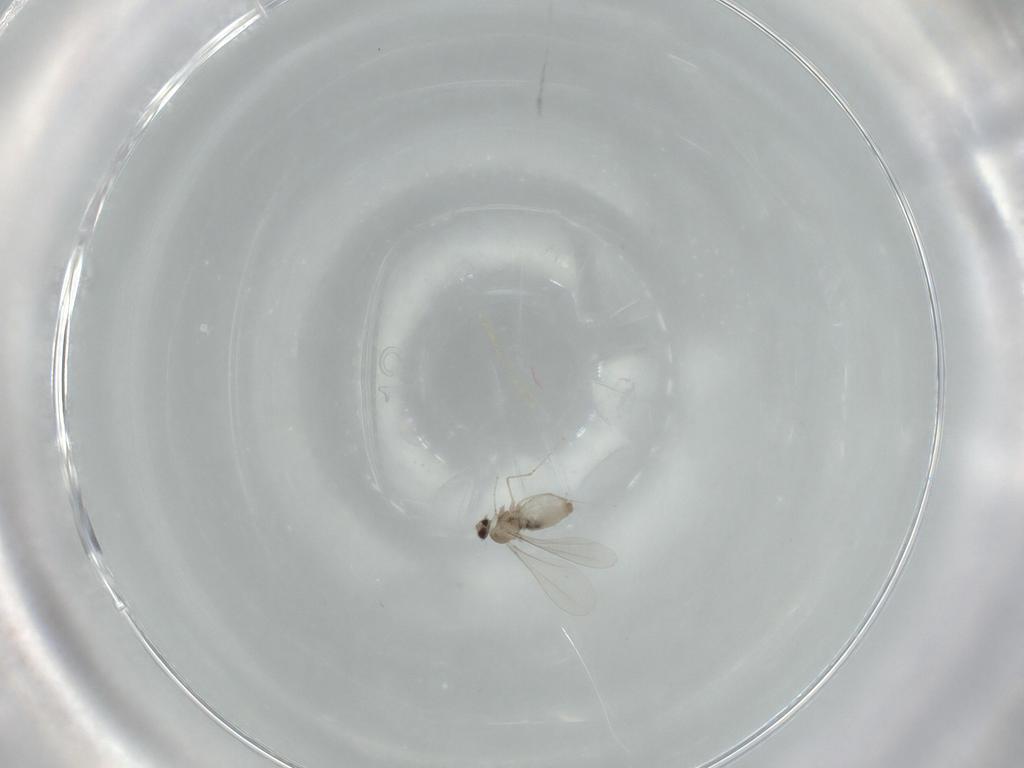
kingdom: Animalia
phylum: Arthropoda
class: Insecta
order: Diptera
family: Cecidomyiidae
